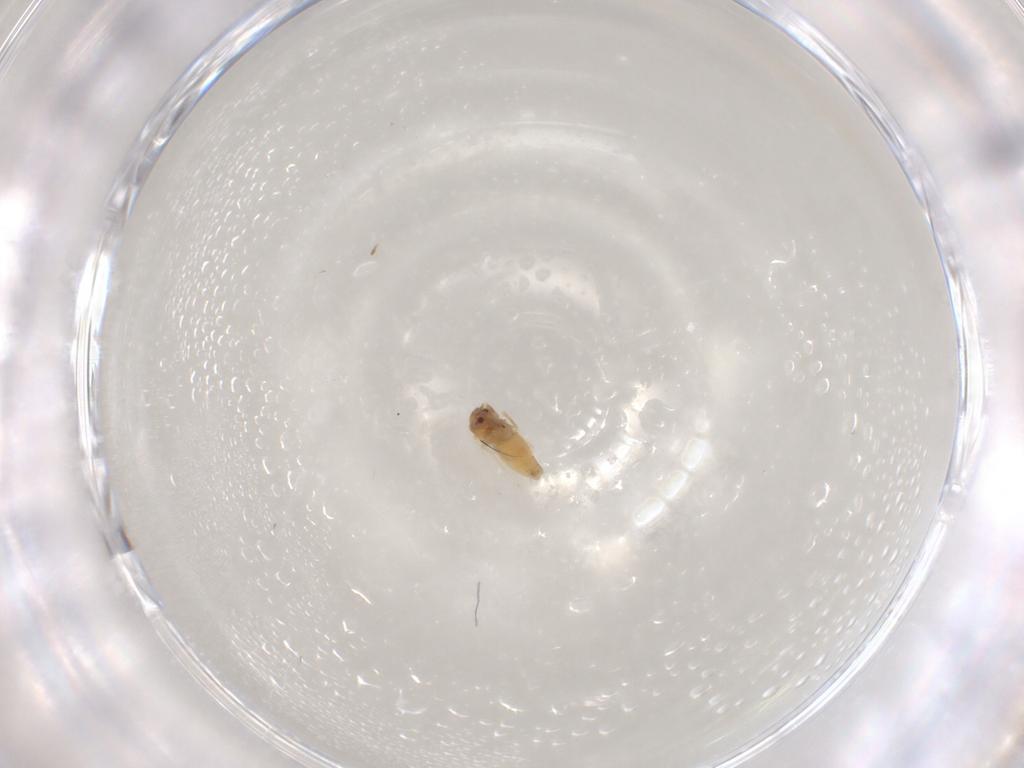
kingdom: Animalia
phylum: Arthropoda
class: Insecta
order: Hemiptera
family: Aleyrodidae
